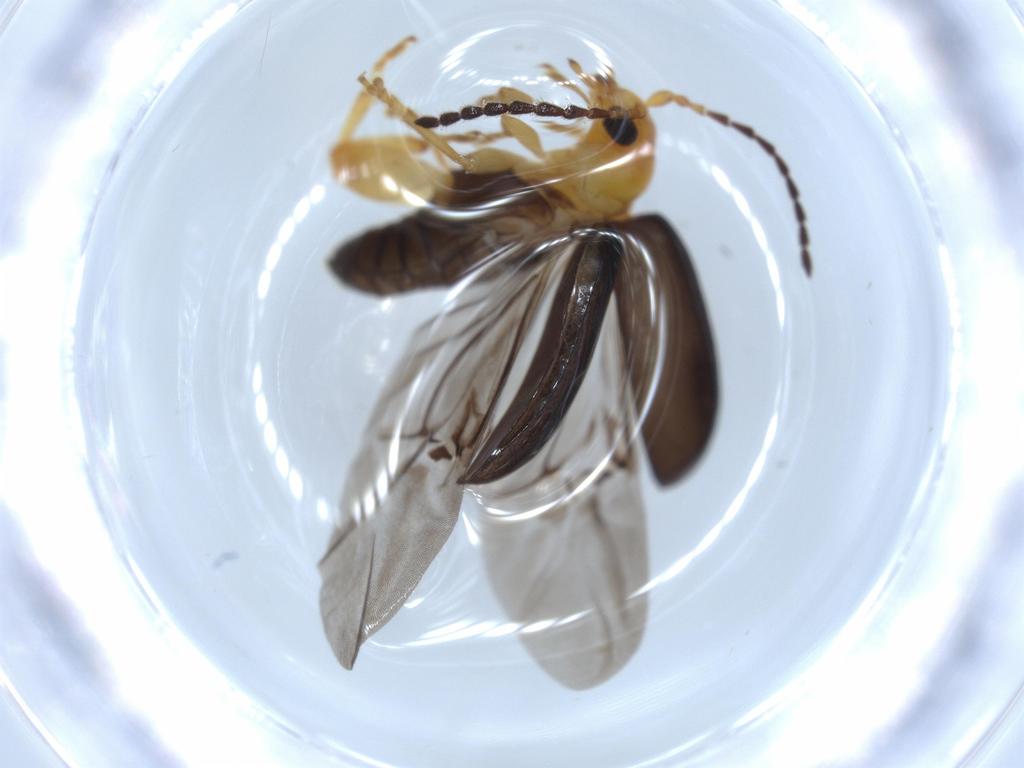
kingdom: Animalia
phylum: Arthropoda
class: Insecta
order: Coleoptera
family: Chrysomelidae
